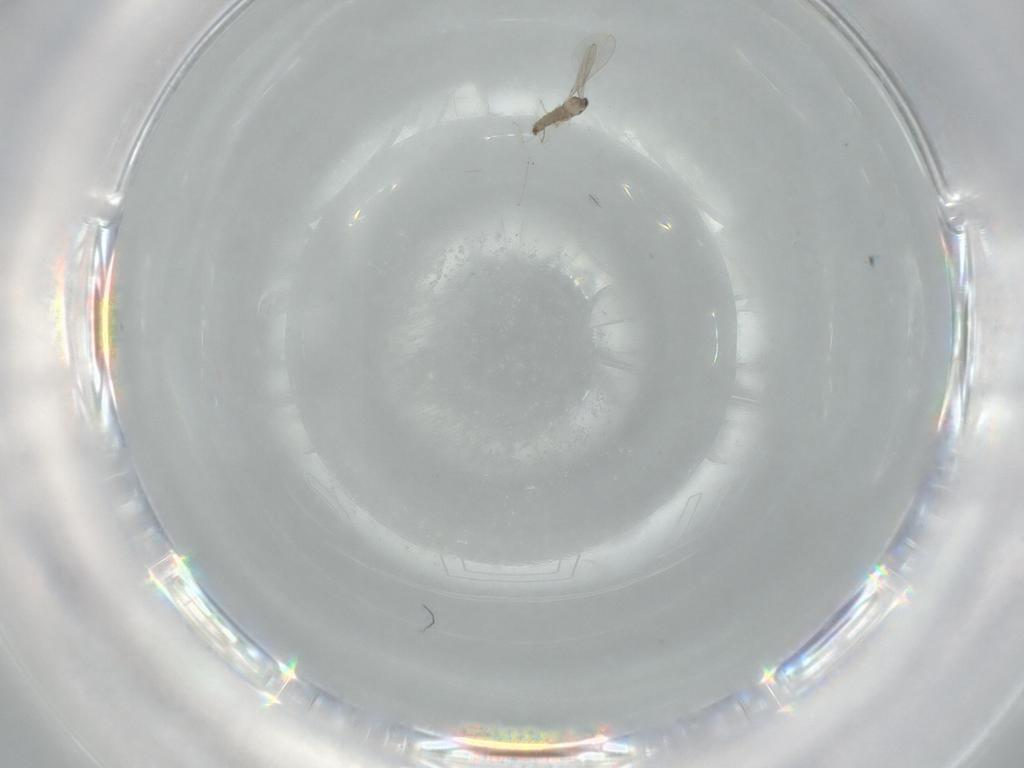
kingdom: Animalia
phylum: Arthropoda
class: Insecta
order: Diptera
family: Cecidomyiidae
